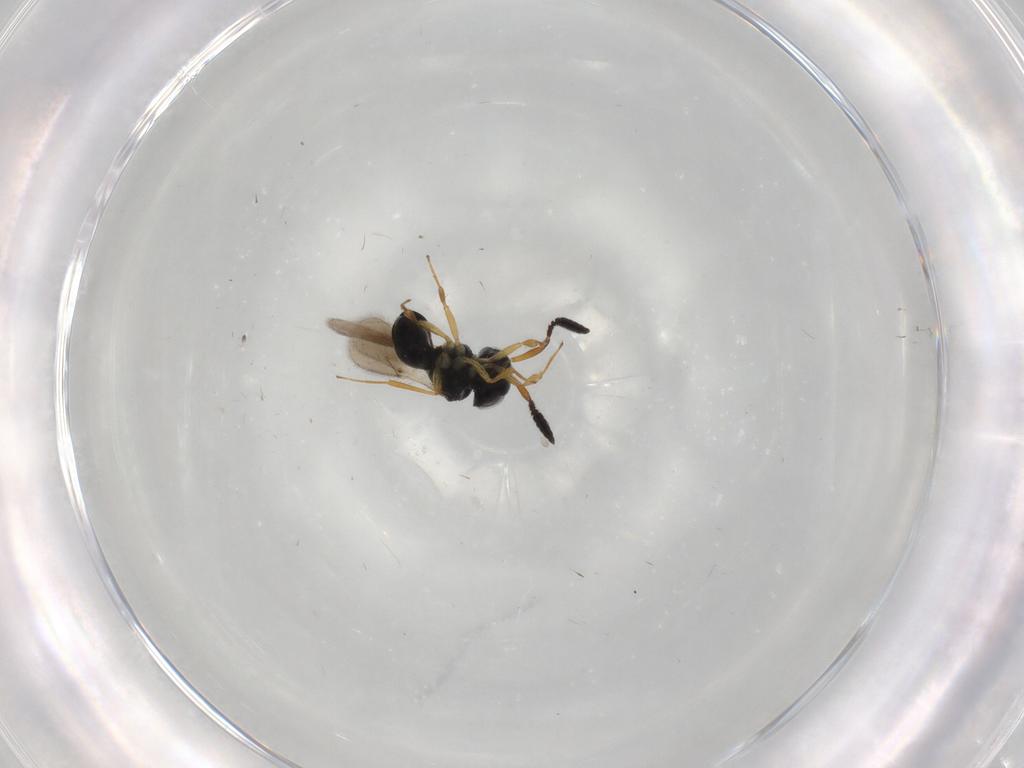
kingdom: Animalia
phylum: Arthropoda
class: Insecta
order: Hymenoptera
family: Scelionidae
